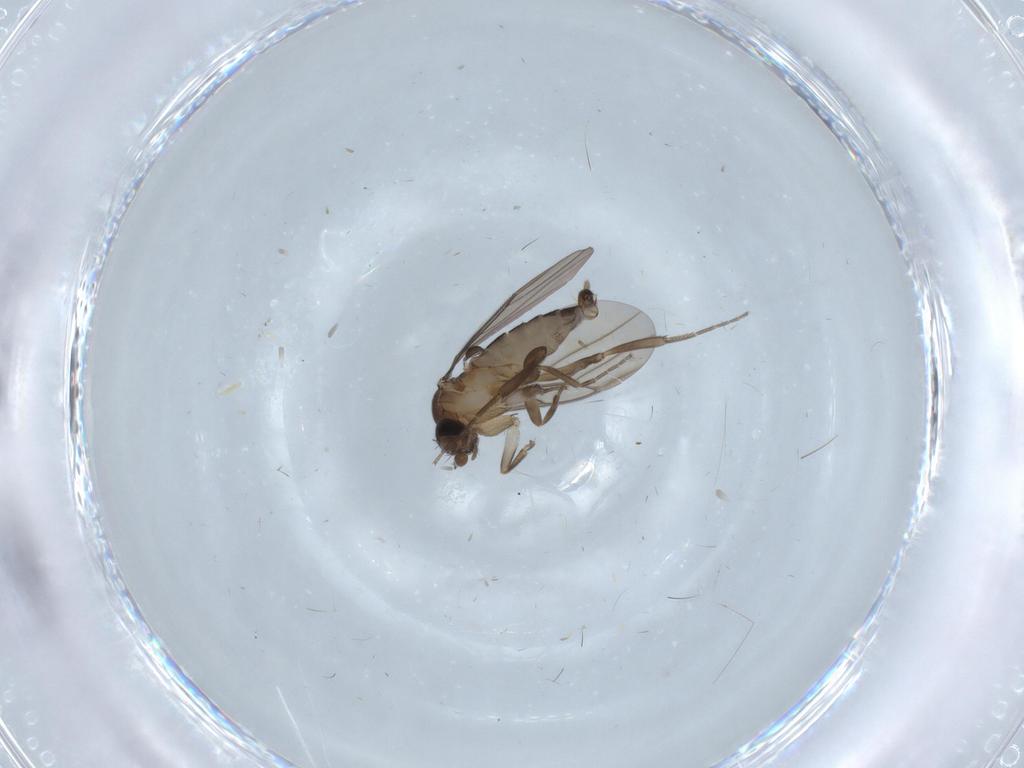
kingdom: Animalia
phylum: Arthropoda
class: Insecta
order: Diptera
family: Cecidomyiidae
